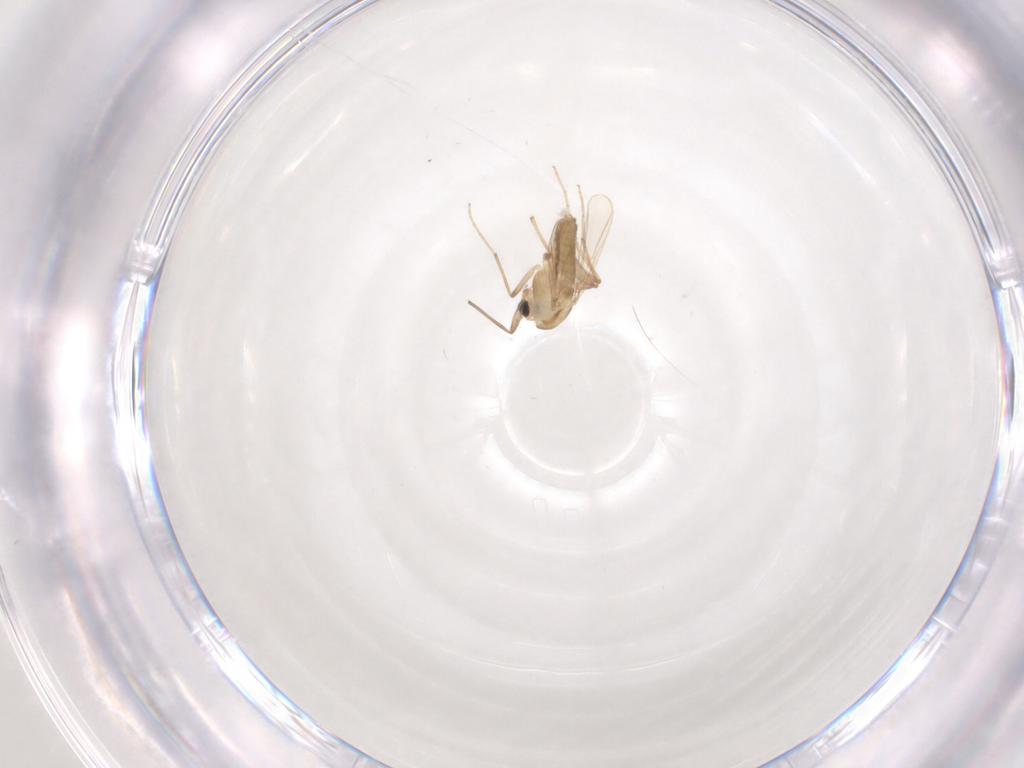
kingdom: Animalia
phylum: Arthropoda
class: Insecta
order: Diptera
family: Chironomidae
